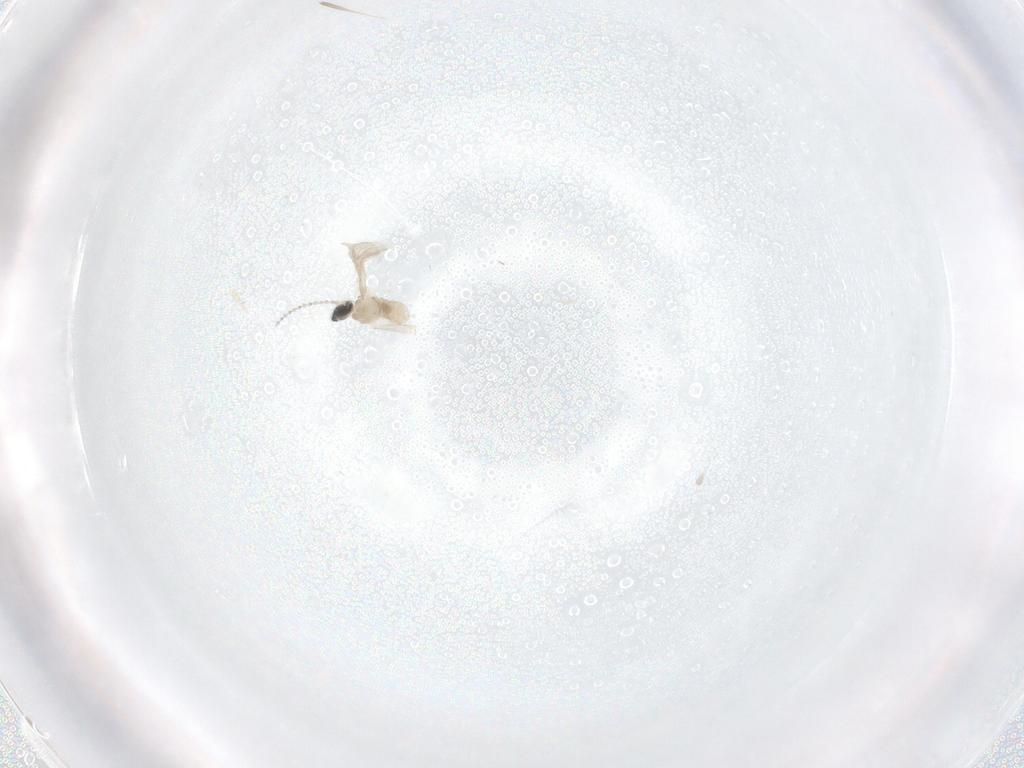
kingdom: Animalia
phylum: Arthropoda
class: Insecta
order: Diptera
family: Cecidomyiidae
